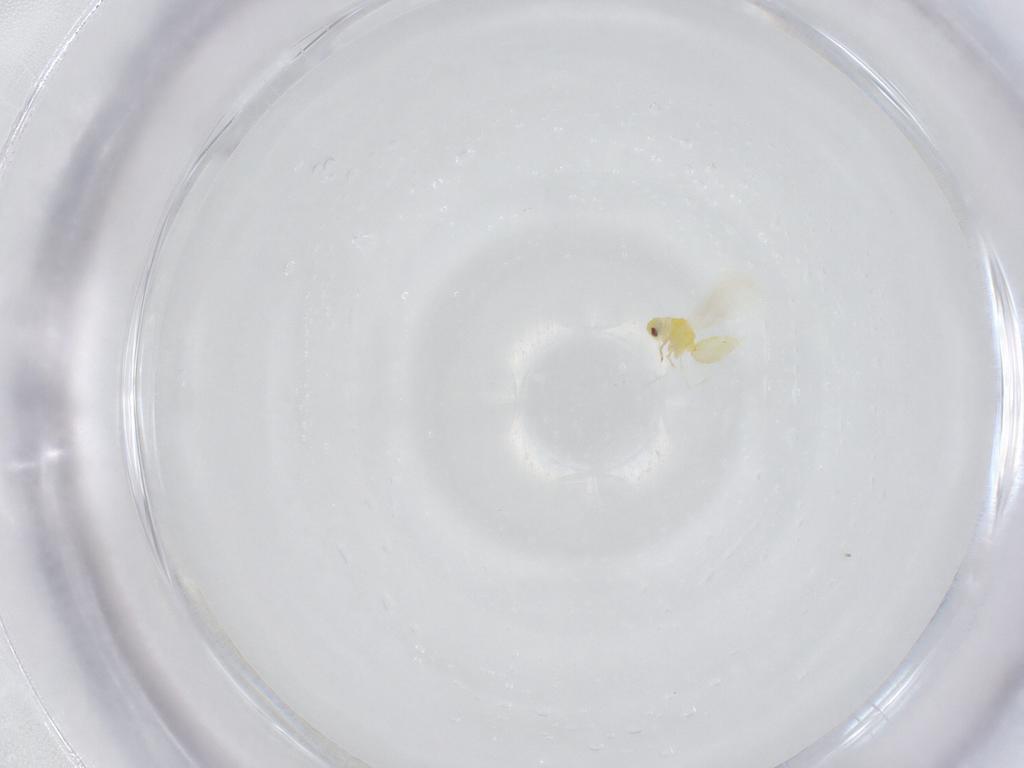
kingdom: Animalia
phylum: Arthropoda
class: Insecta
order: Hemiptera
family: Aleyrodidae
